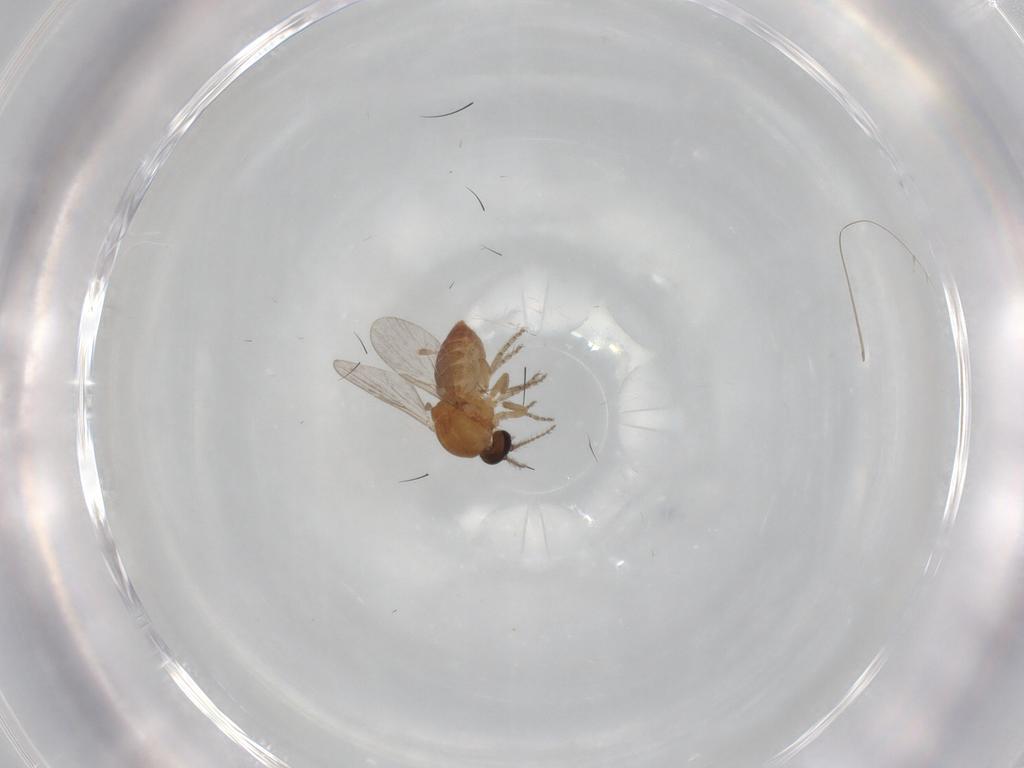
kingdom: Animalia
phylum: Arthropoda
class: Insecta
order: Diptera
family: Ceratopogonidae
